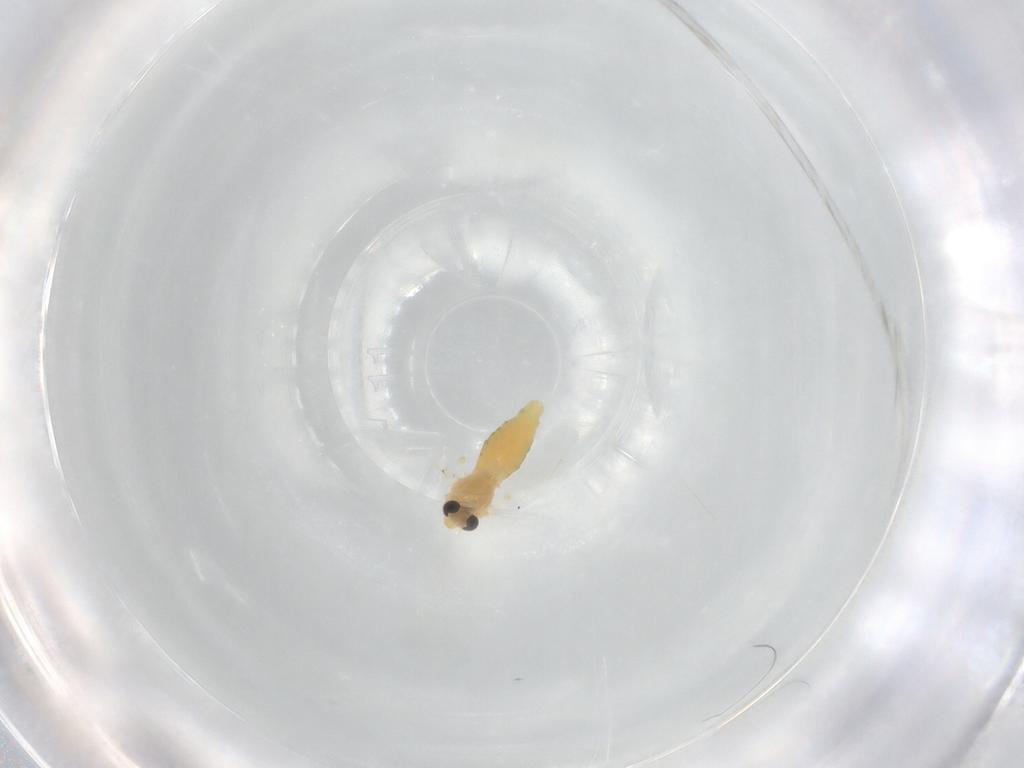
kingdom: Animalia
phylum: Arthropoda
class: Insecta
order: Diptera
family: Chironomidae
